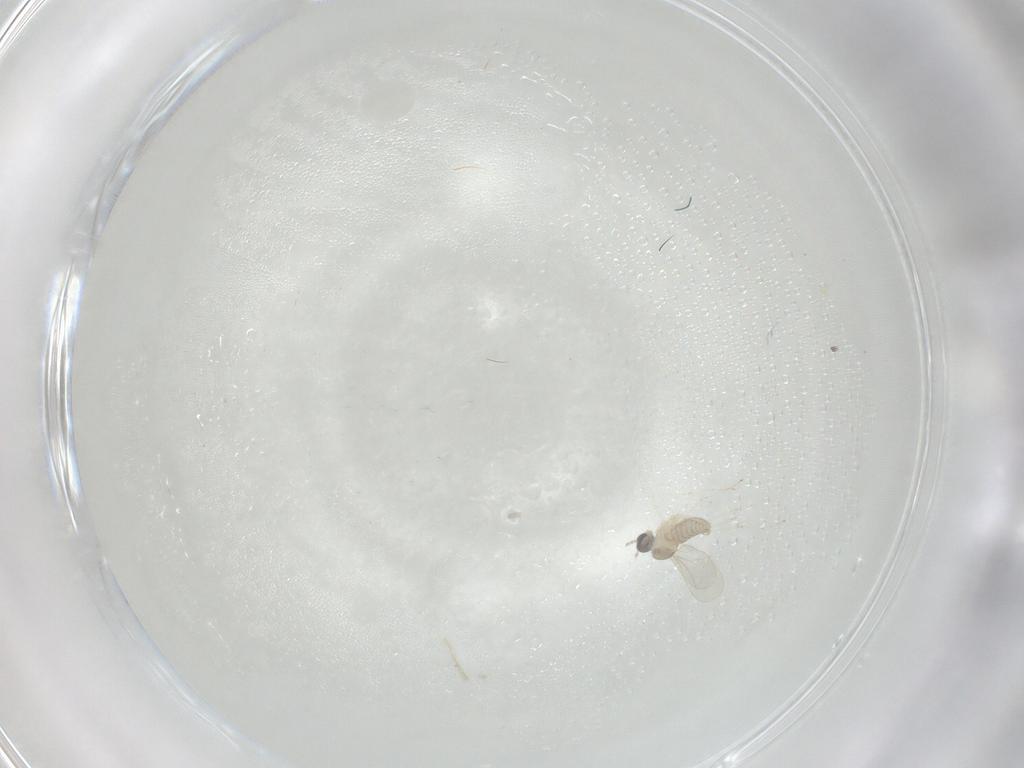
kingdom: Animalia
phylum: Arthropoda
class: Insecta
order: Diptera
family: Cecidomyiidae
